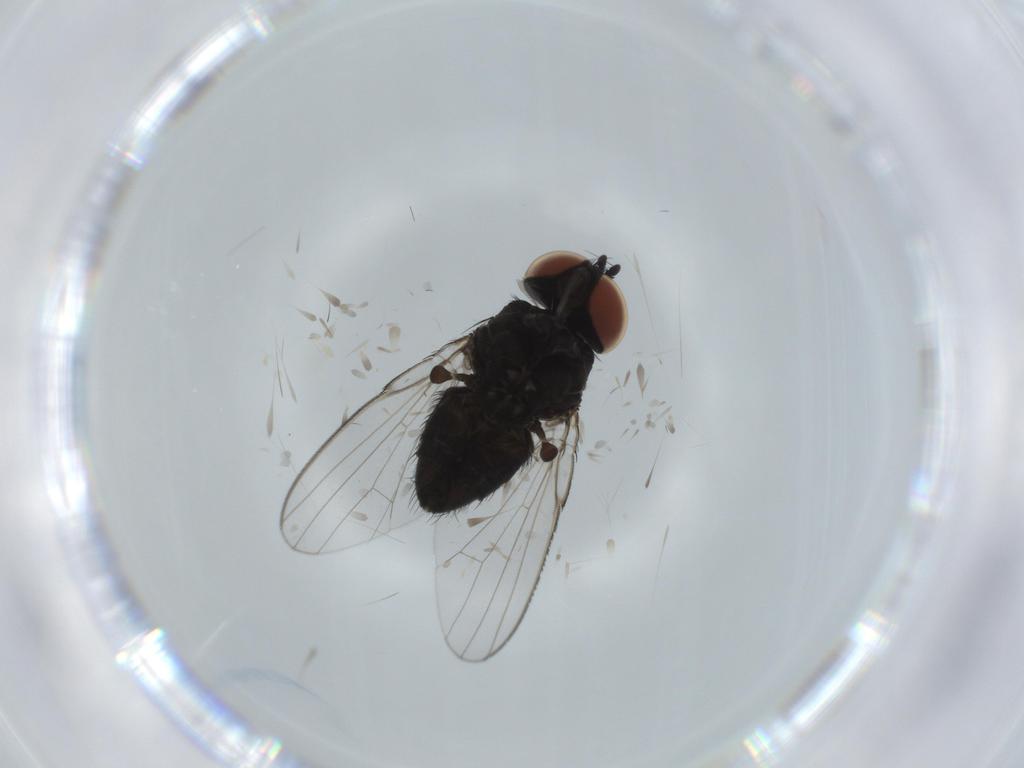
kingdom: Animalia
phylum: Arthropoda
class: Insecta
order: Diptera
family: Milichiidae
